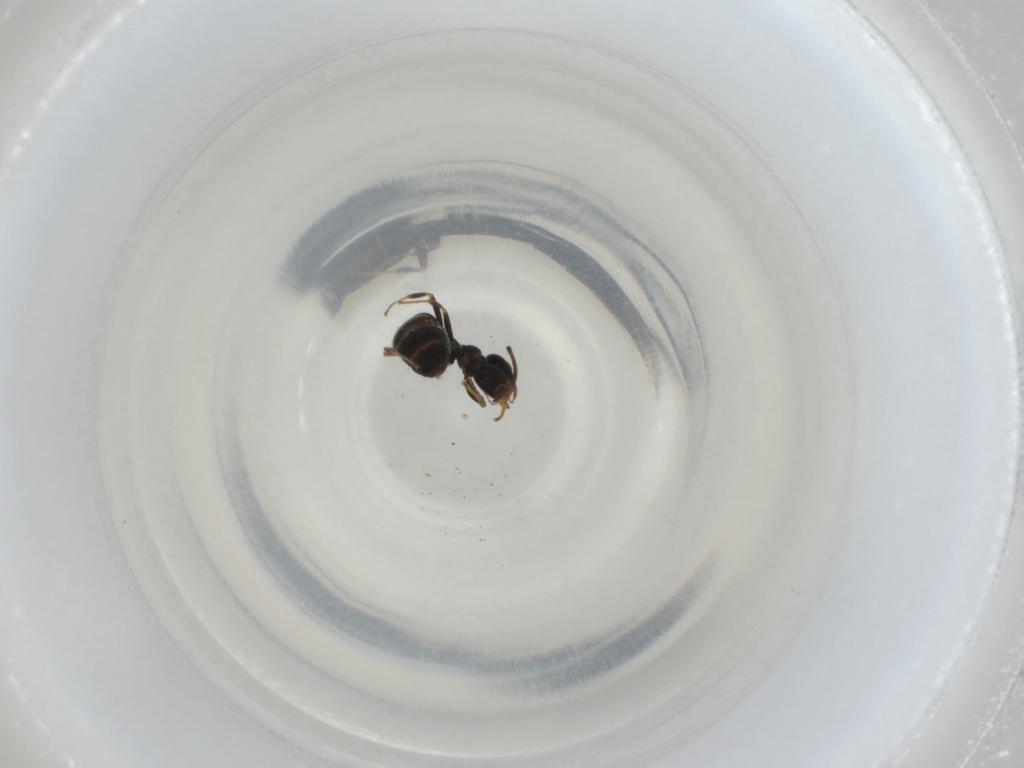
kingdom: Animalia
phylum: Arthropoda
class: Insecta
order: Hymenoptera
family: Formicidae
